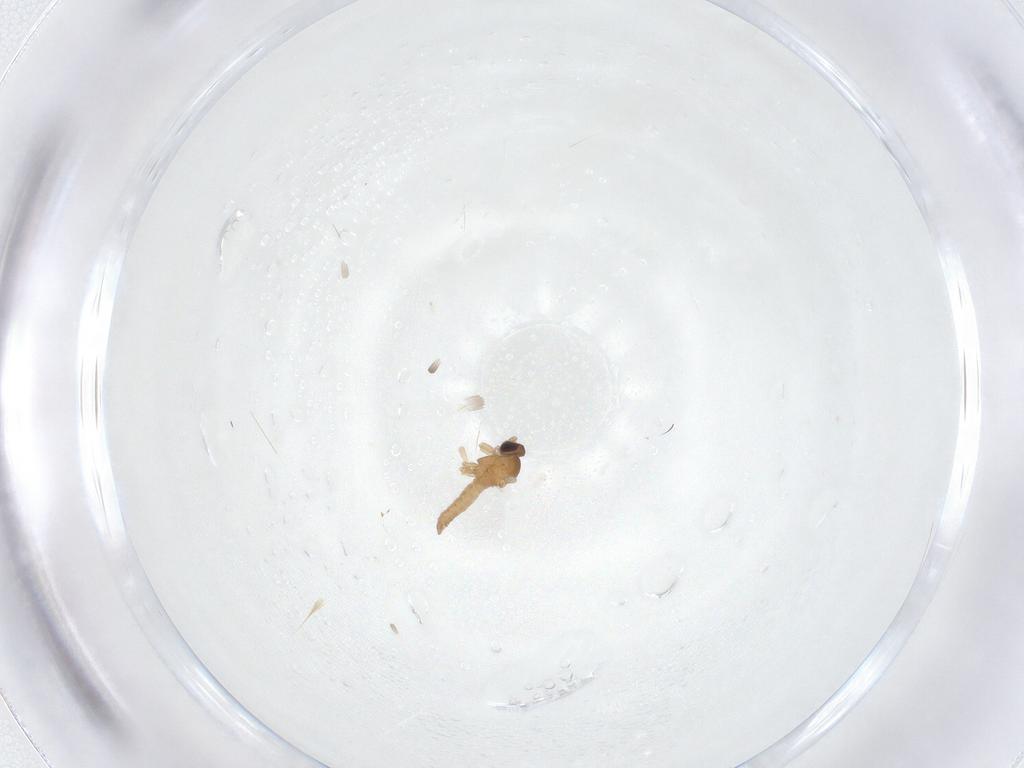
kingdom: Animalia
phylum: Arthropoda
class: Insecta
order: Diptera
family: Cecidomyiidae
